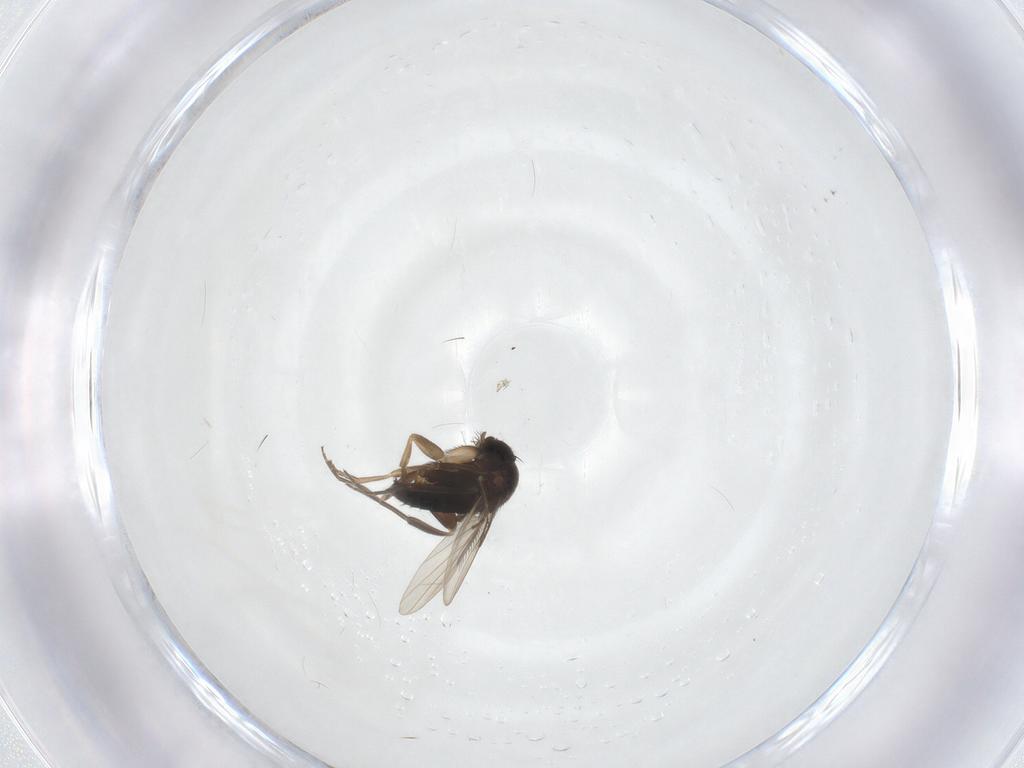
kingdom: Animalia
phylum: Arthropoda
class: Insecta
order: Diptera
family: Phoridae
